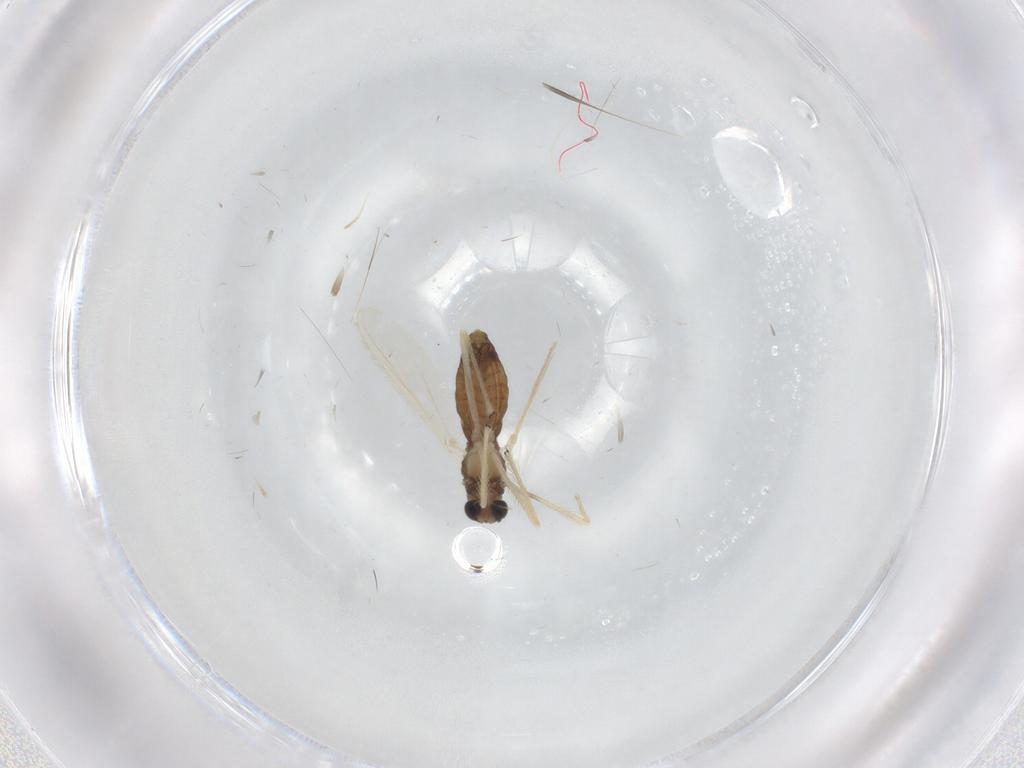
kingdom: Animalia
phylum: Arthropoda
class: Insecta
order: Diptera
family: Chironomidae
